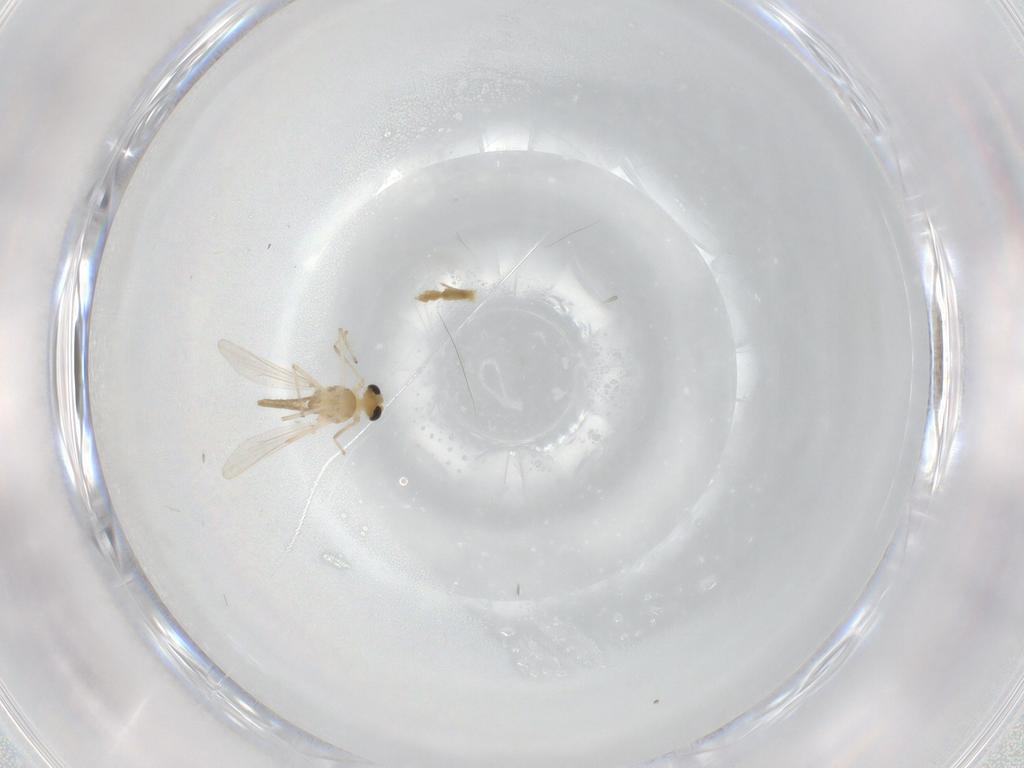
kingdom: Animalia
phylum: Arthropoda
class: Insecta
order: Diptera
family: Chironomidae
